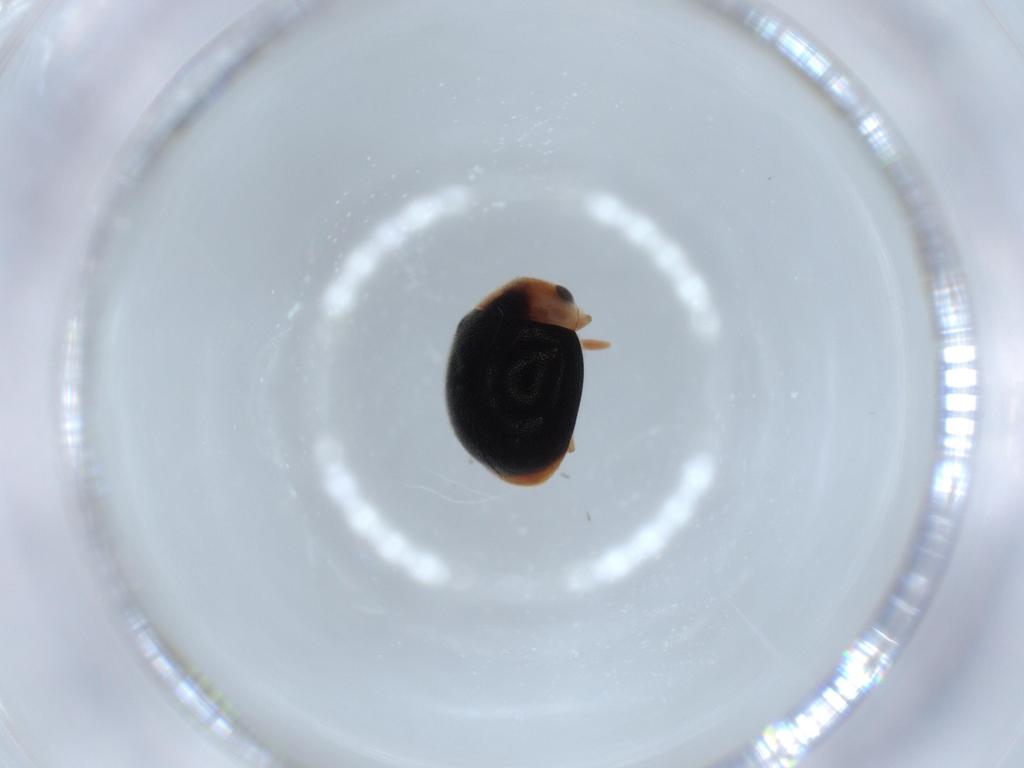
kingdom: Animalia
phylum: Arthropoda
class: Insecta
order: Coleoptera
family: Coccinellidae
